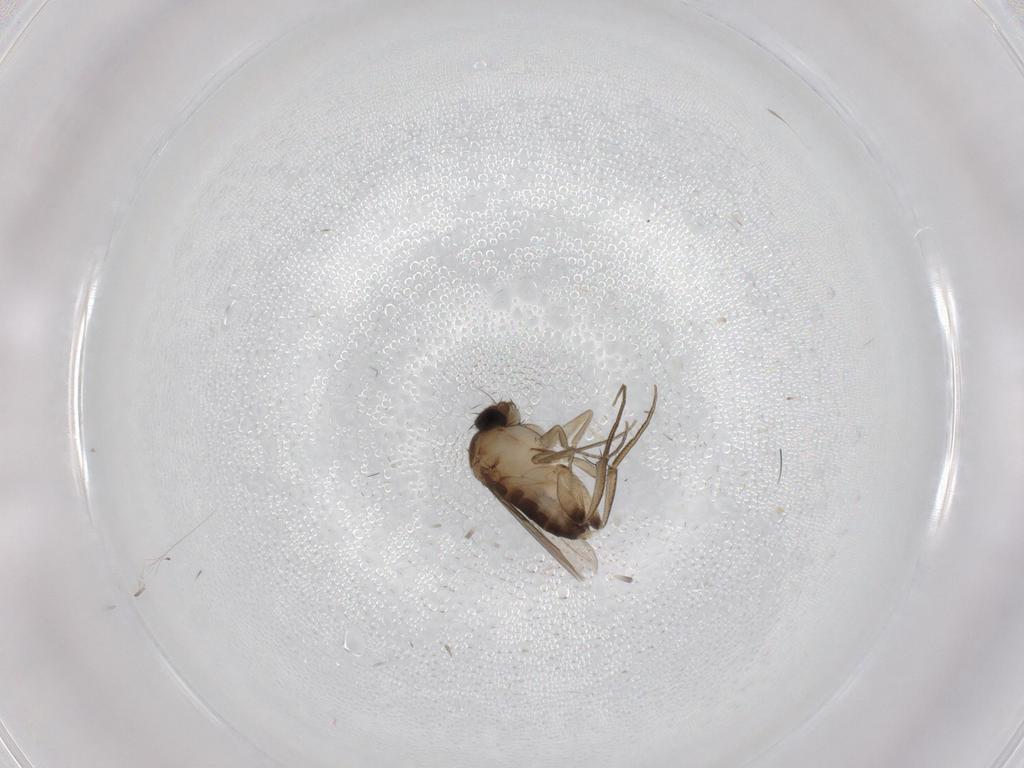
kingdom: Animalia
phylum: Arthropoda
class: Insecta
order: Diptera
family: Phoridae
